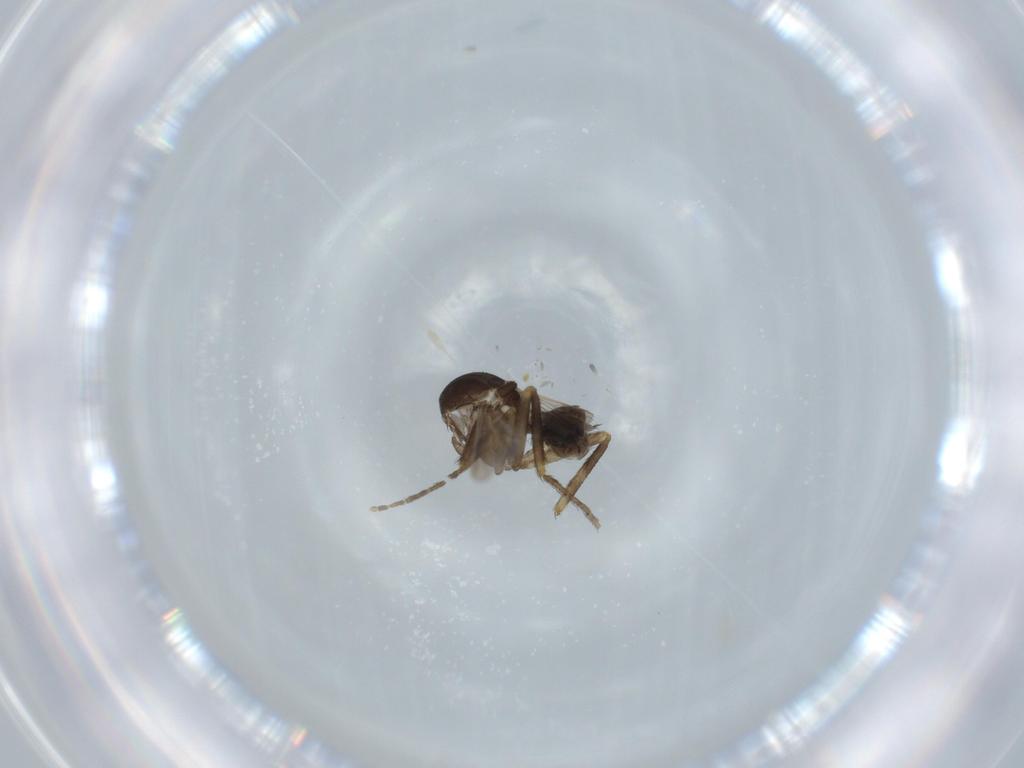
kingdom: Animalia
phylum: Arthropoda
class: Insecta
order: Diptera
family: Ceratopogonidae
